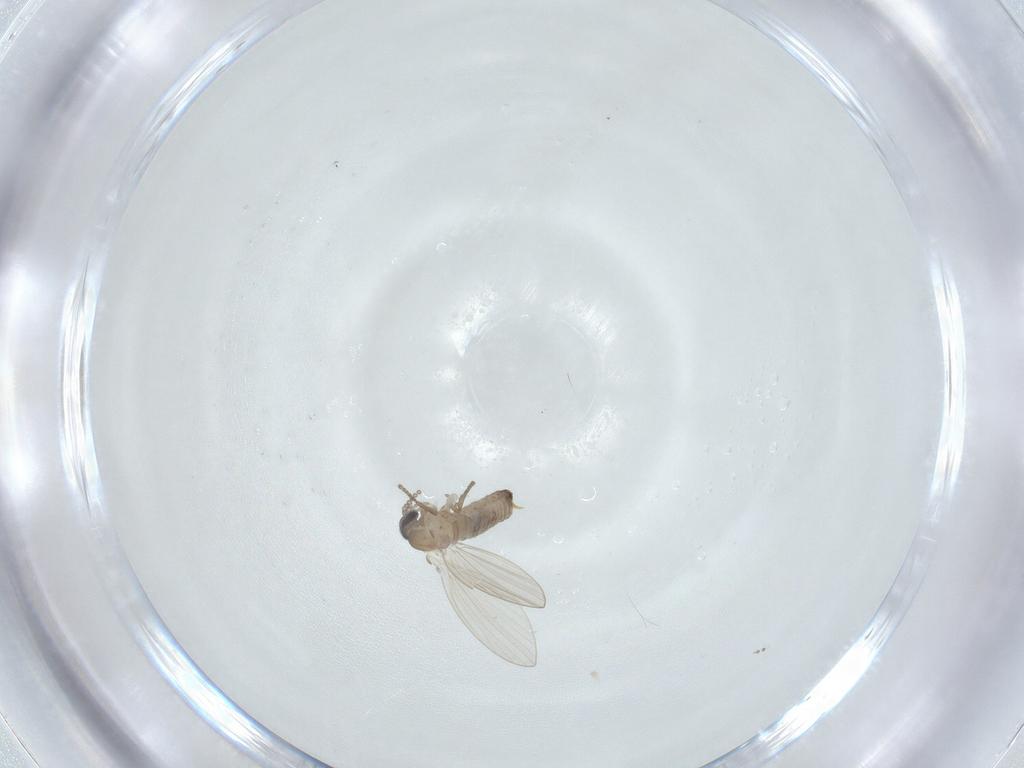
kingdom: Animalia
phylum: Arthropoda
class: Insecta
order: Diptera
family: Psychodidae
